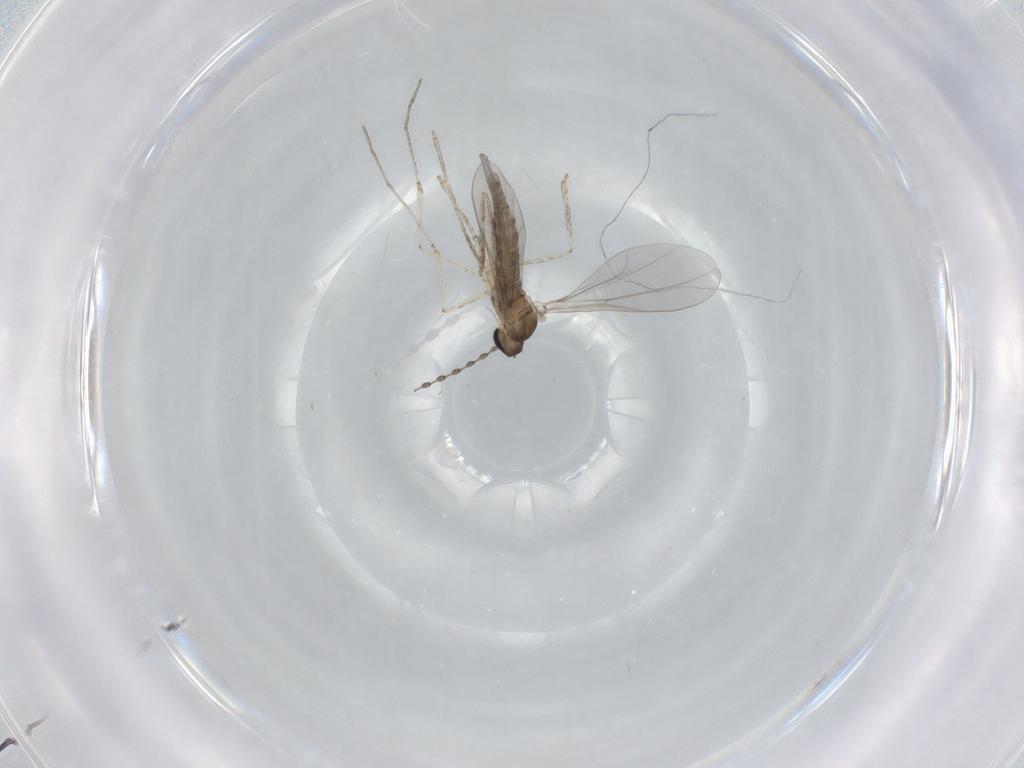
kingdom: Animalia
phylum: Arthropoda
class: Insecta
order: Diptera
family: Cecidomyiidae
